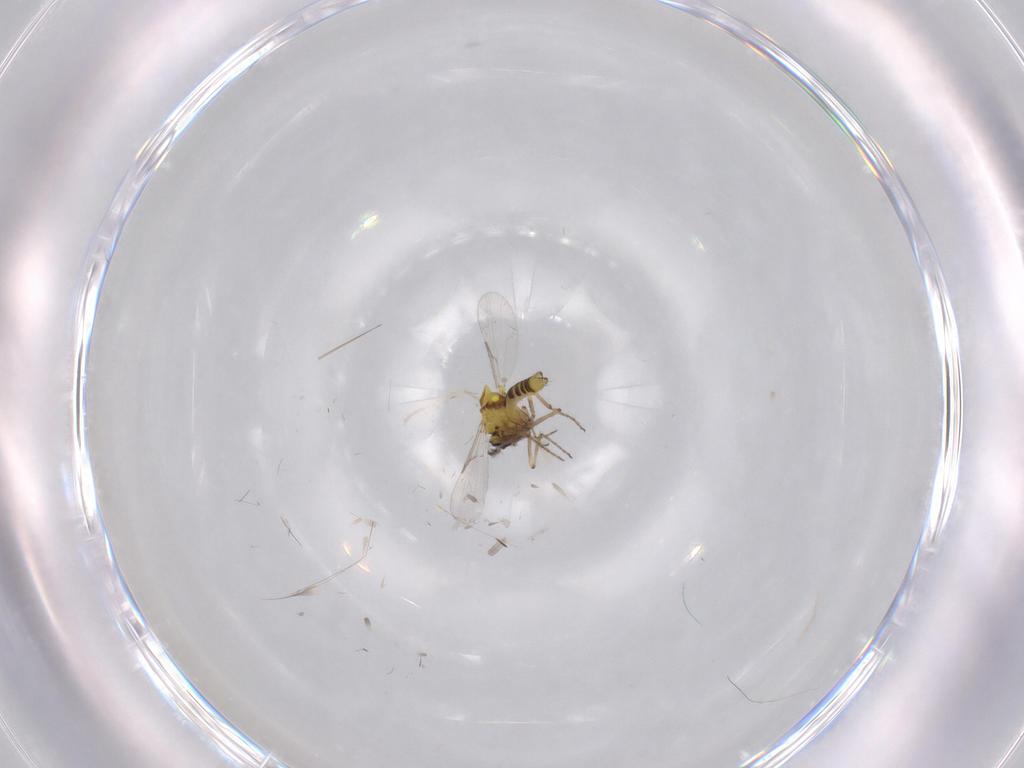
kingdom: Animalia
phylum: Arthropoda
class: Insecta
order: Diptera
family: Ceratopogonidae
